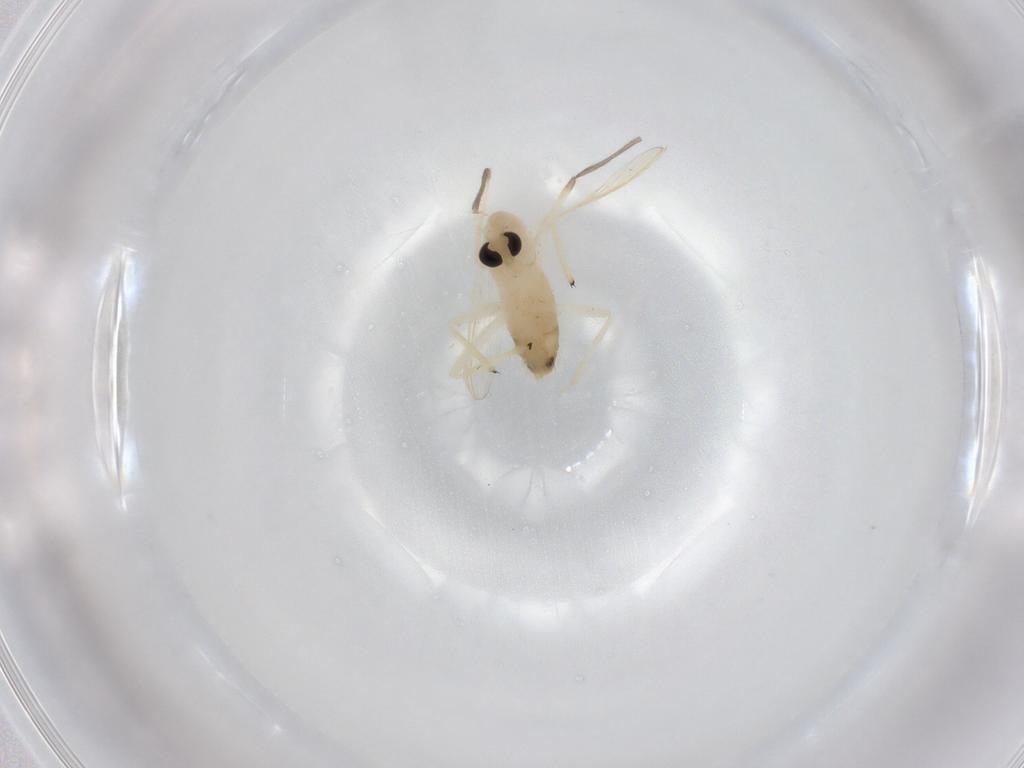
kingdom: Animalia
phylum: Arthropoda
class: Insecta
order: Diptera
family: Chironomidae
